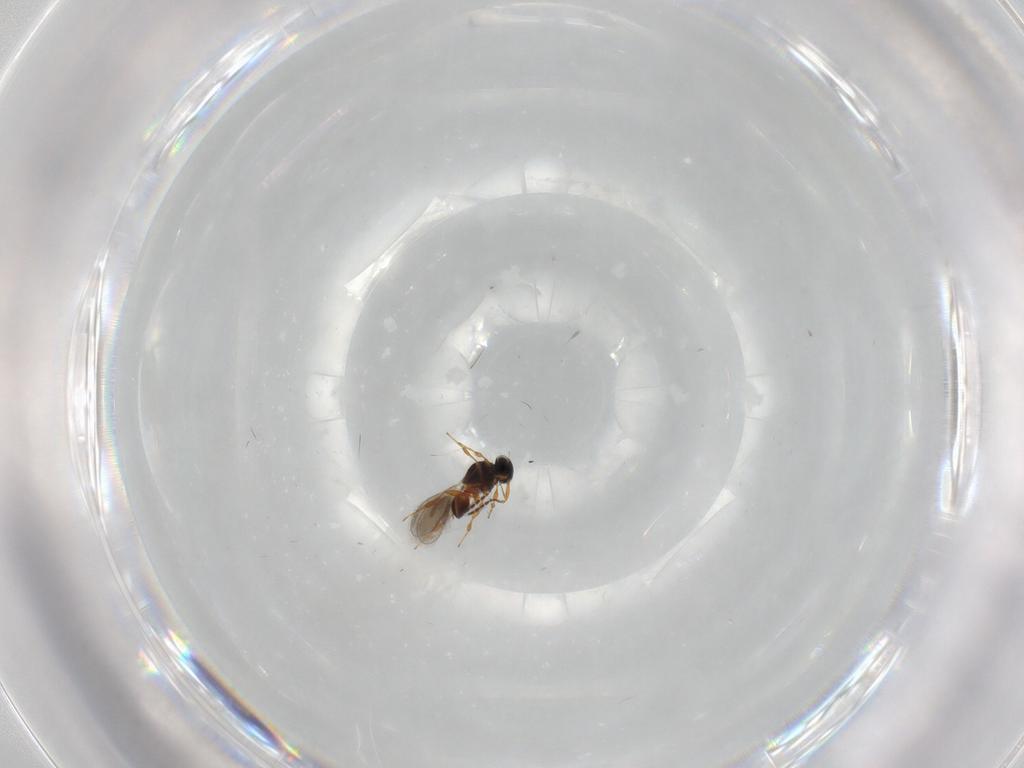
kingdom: Animalia
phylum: Arthropoda
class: Insecta
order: Hymenoptera
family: Platygastridae
